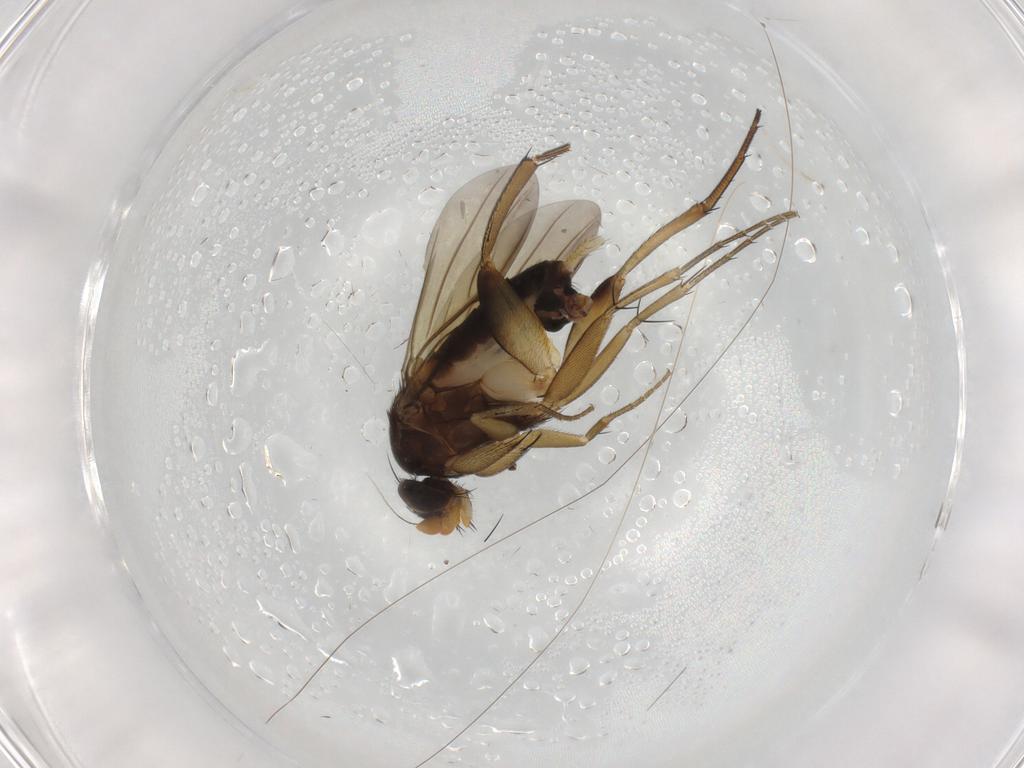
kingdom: Animalia
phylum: Arthropoda
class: Insecta
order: Diptera
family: Phoridae
